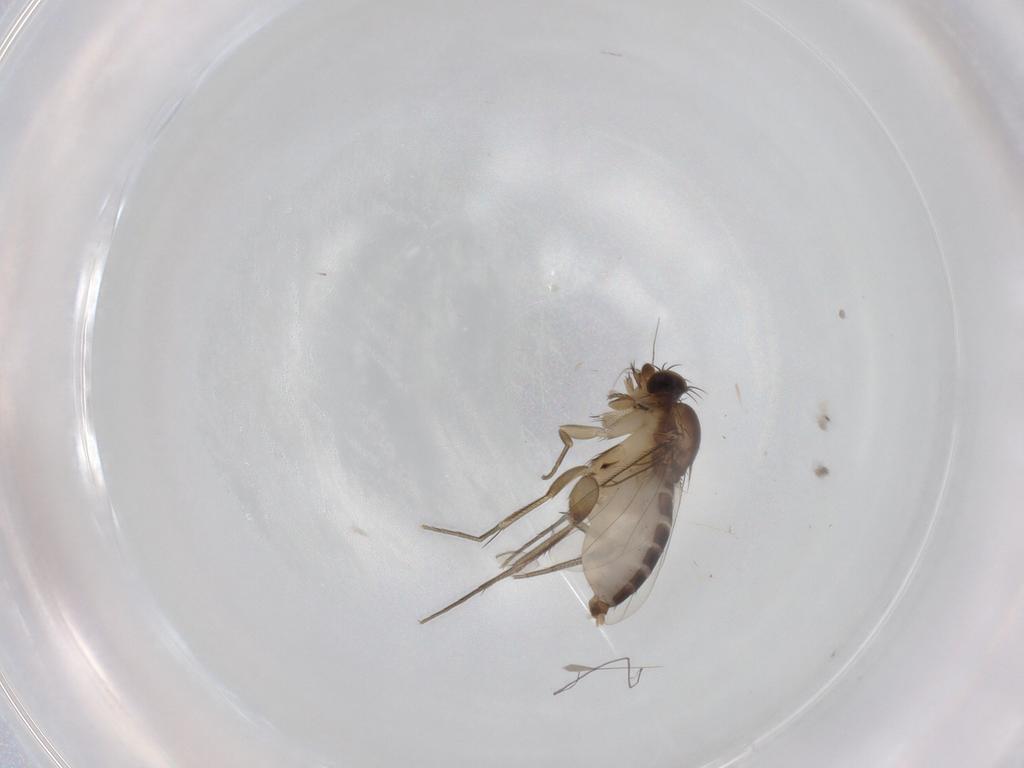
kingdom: Animalia
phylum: Arthropoda
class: Insecta
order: Diptera
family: Phoridae
